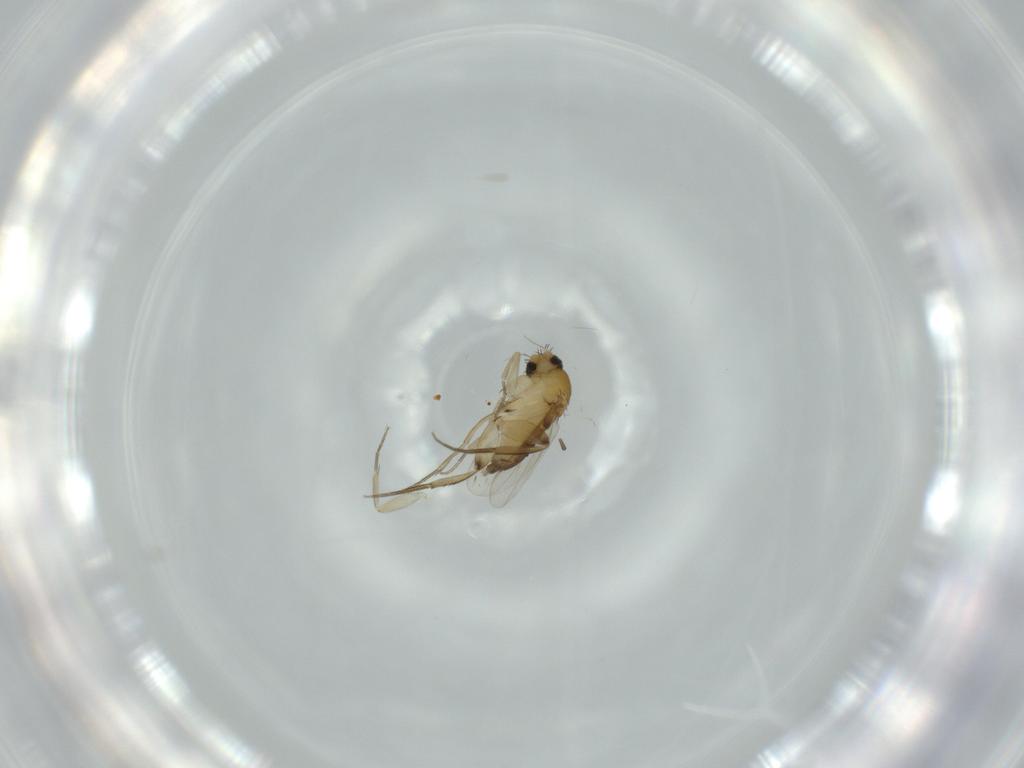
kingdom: Animalia
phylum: Arthropoda
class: Insecta
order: Diptera
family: Phoridae
